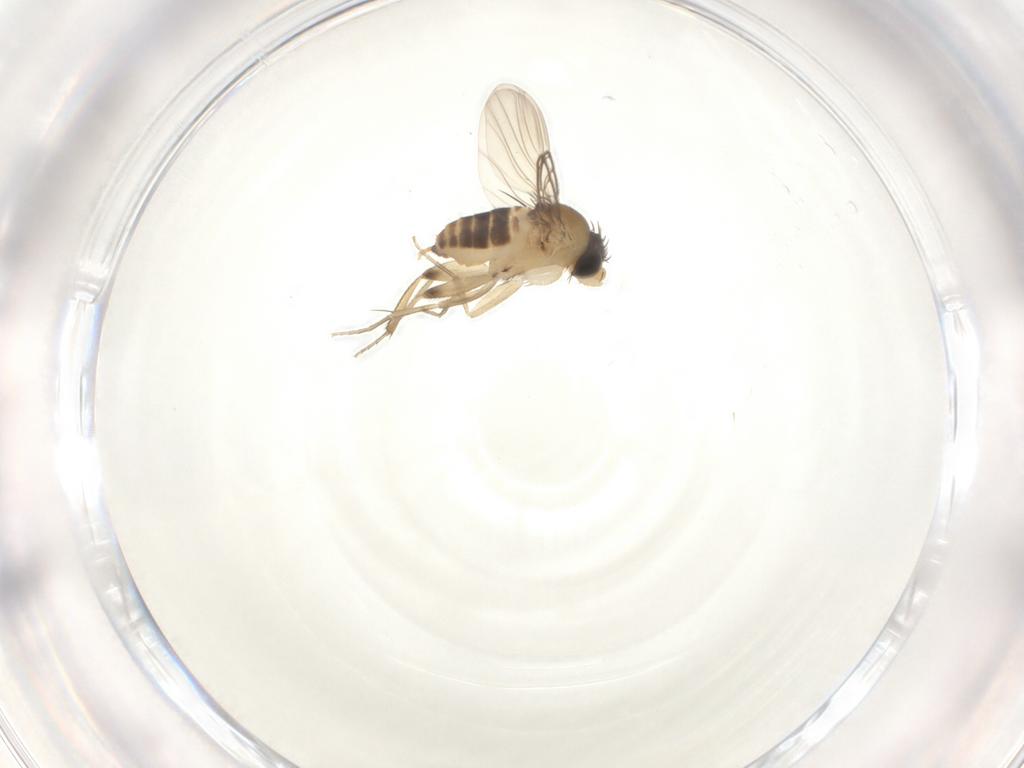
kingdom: Animalia
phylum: Arthropoda
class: Insecta
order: Diptera
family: Phoridae
